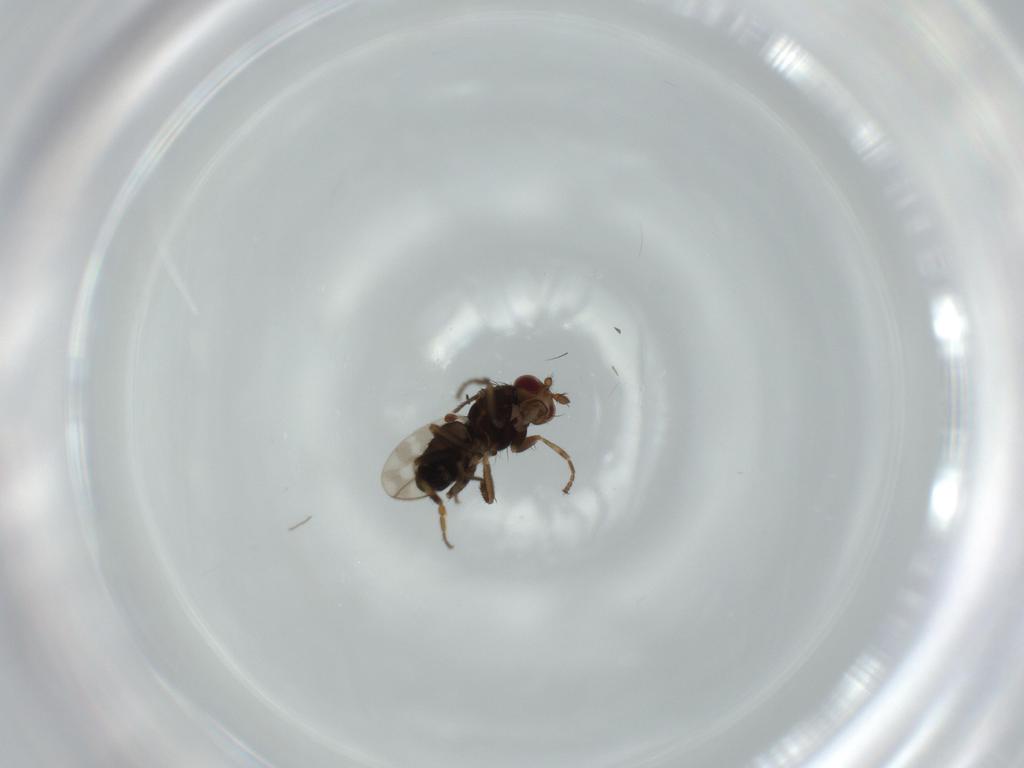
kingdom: Animalia
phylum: Arthropoda
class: Insecta
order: Diptera
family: Sphaeroceridae
